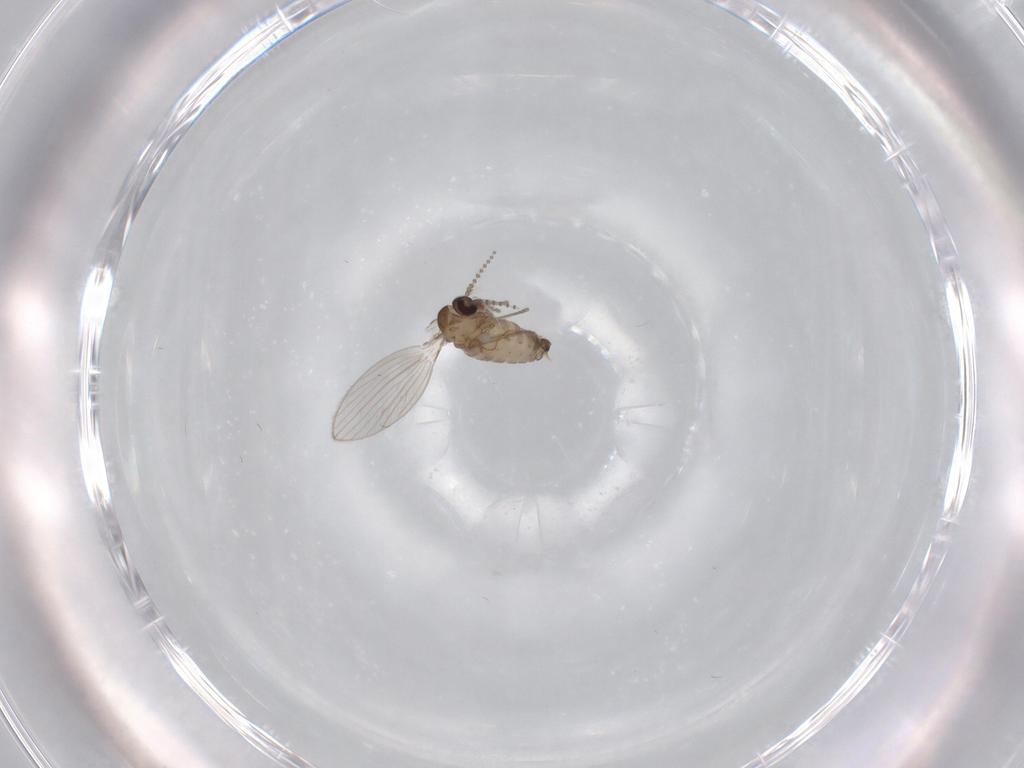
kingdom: Animalia
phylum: Arthropoda
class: Insecta
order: Diptera
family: Psychodidae
